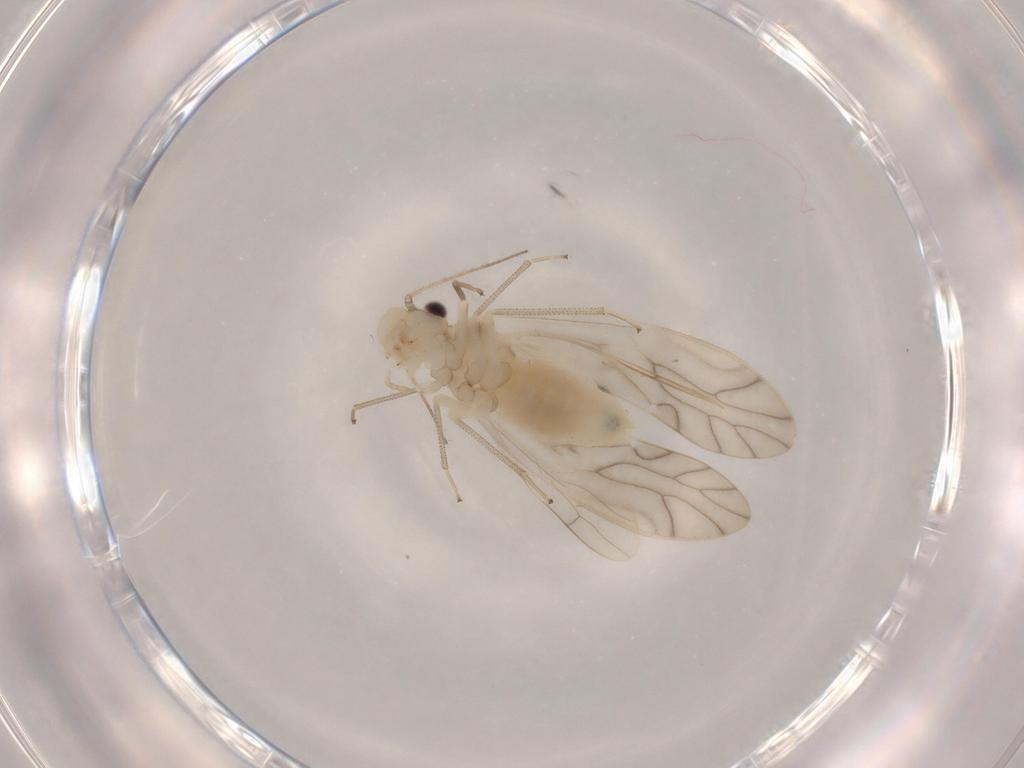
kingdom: Animalia
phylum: Arthropoda
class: Insecta
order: Psocodea
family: Caeciliusidae
